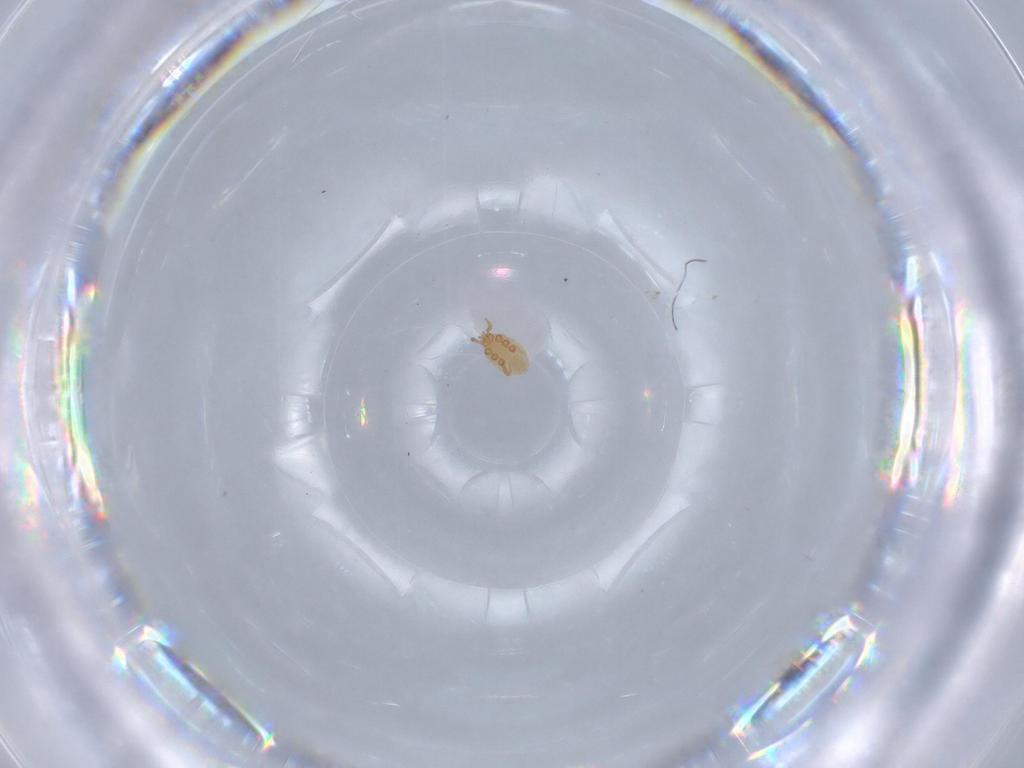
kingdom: Animalia
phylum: Arthropoda
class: Arachnida
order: Mesostigmata
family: Dinychidae
